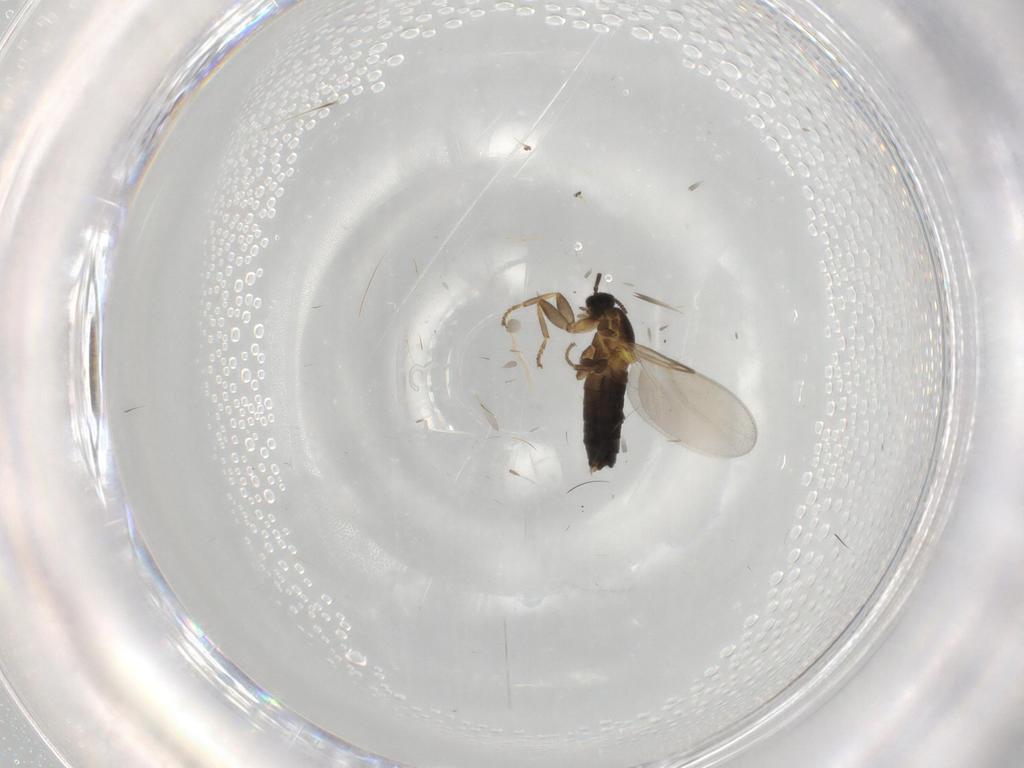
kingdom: Animalia
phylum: Arthropoda
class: Insecta
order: Diptera
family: Scatopsidae
